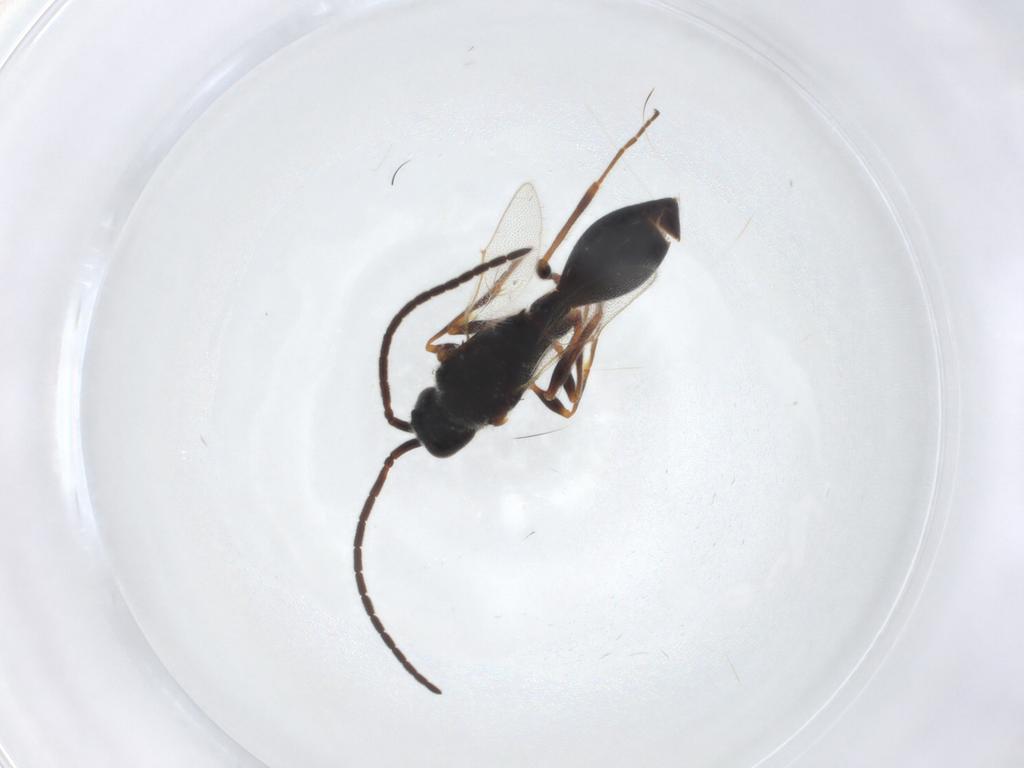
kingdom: Animalia
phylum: Arthropoda
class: Insecta
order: Hymenoptera
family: Diapriidae
